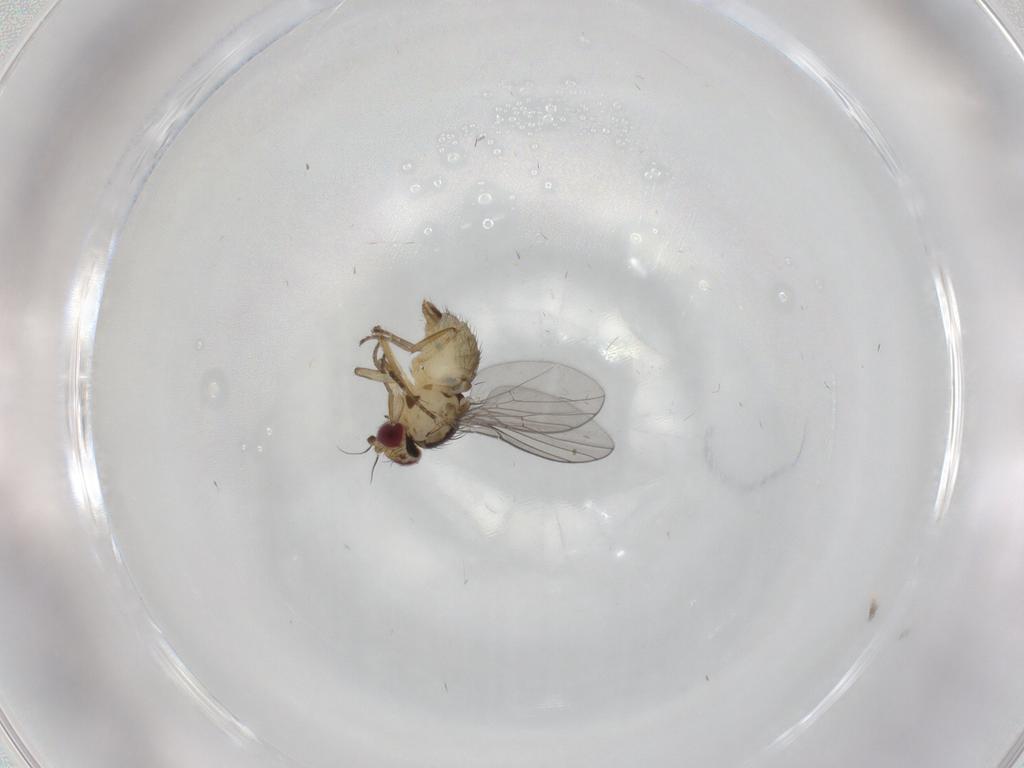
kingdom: Animalia
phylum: Arthropoda
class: Insecta
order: Diptera
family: Agromyzidae
